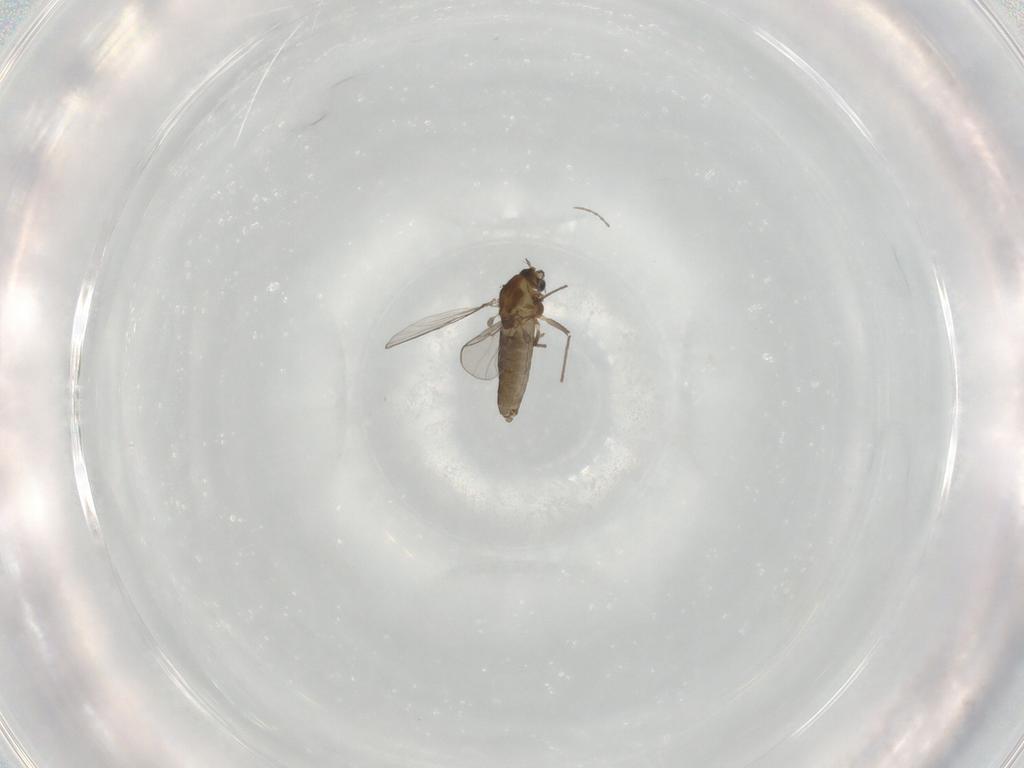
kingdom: Animalia
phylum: Arthropoda
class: Insecta
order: Diptera
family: Chironomidae
